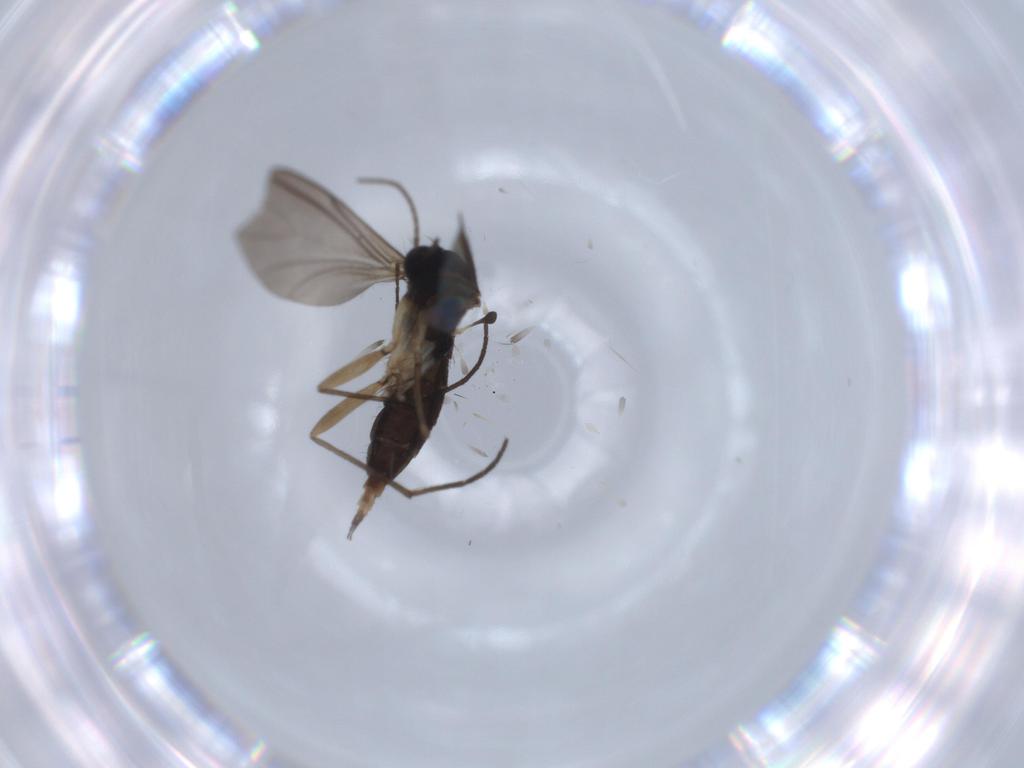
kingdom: Animalia
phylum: Arthropoda
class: Insecta
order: Diptera
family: Sciaridae
